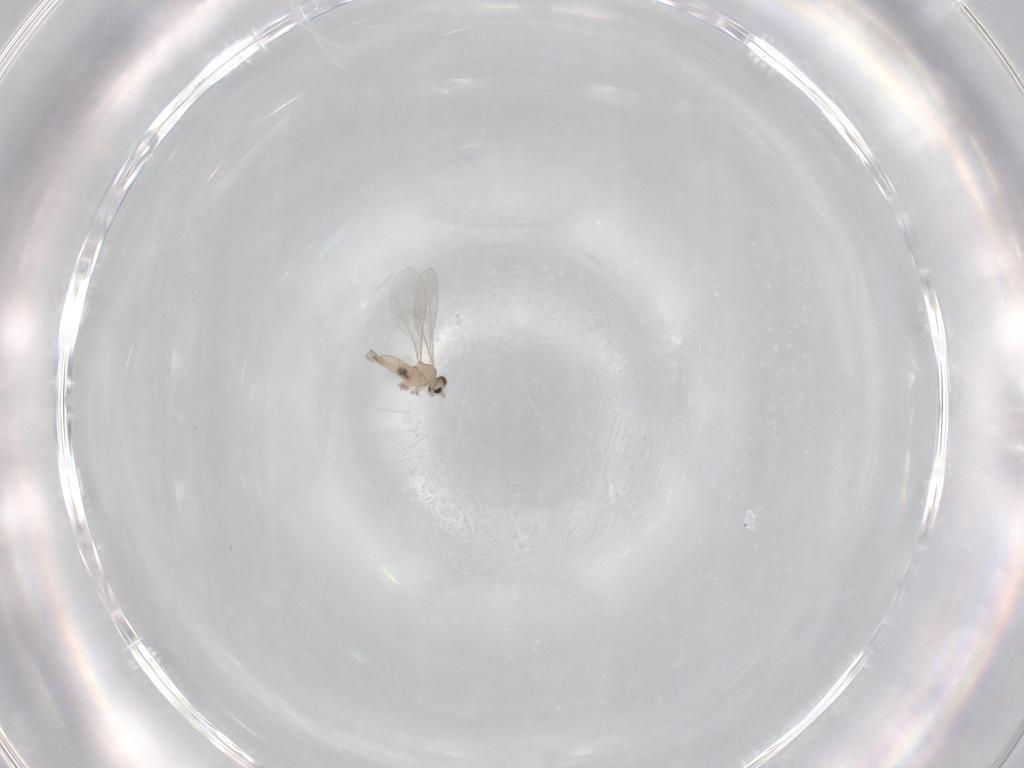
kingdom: Animalia
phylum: Arthropoda
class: Insecta
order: Diptera
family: Cecidomyiidae
